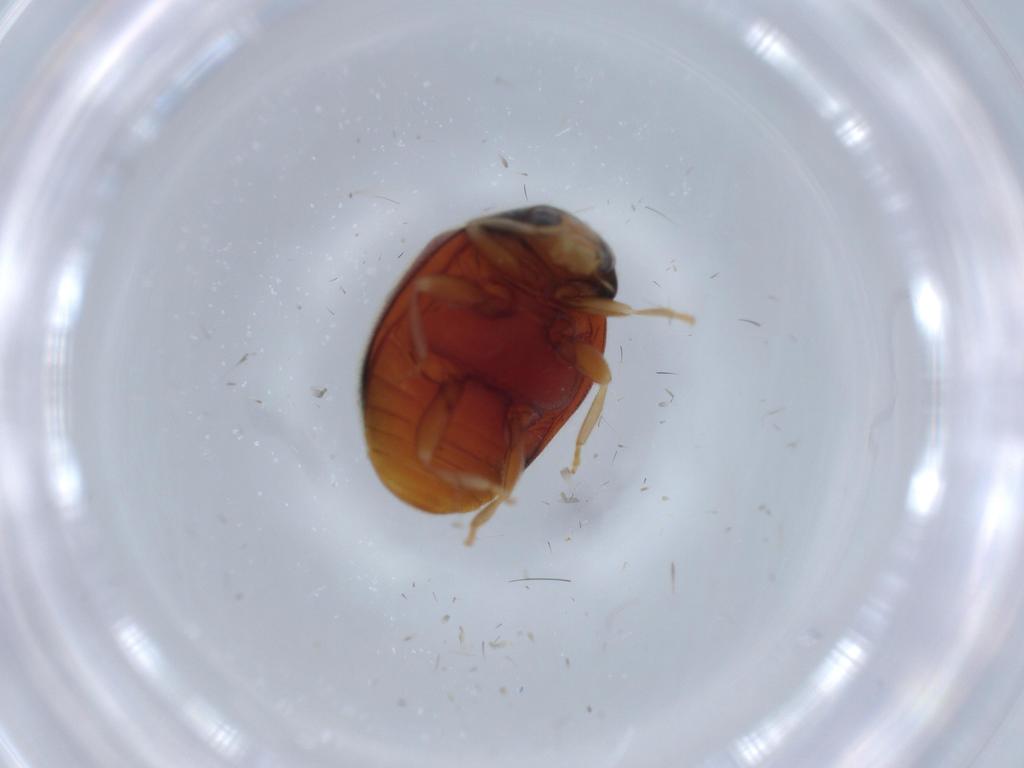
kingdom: Animalia
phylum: Arthropoda
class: Insecta
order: Coleoptera
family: Coccinellidae
